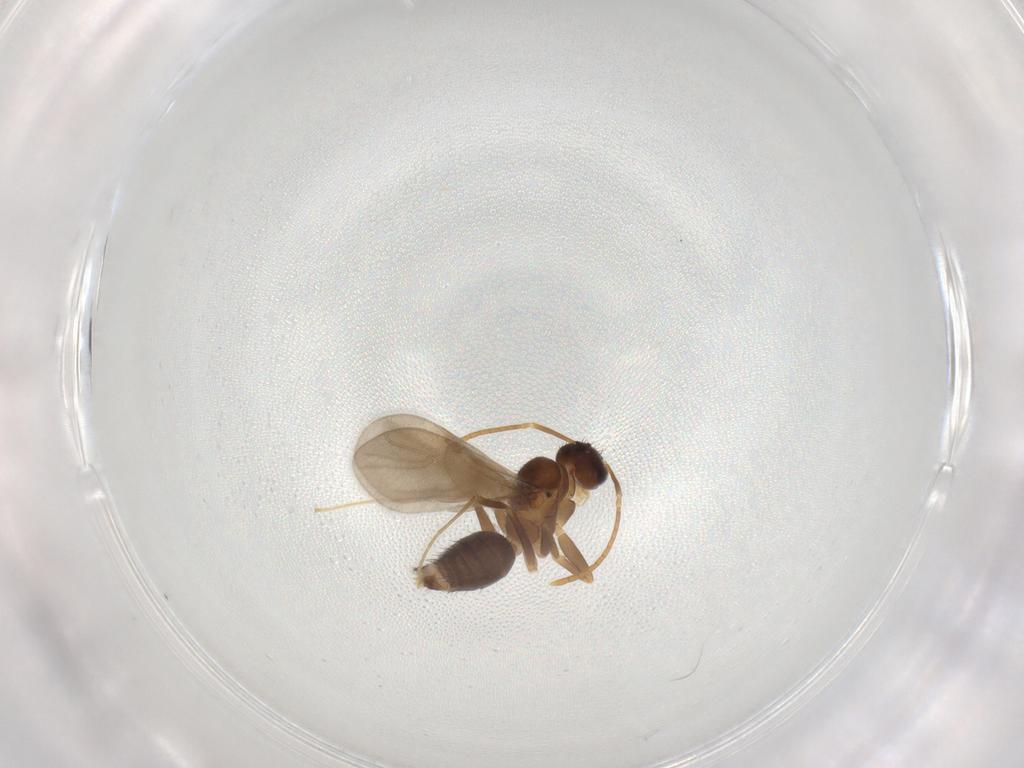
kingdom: Animalia
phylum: Arthropoda
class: Insecta
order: Hymenoptera
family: Formicidae
